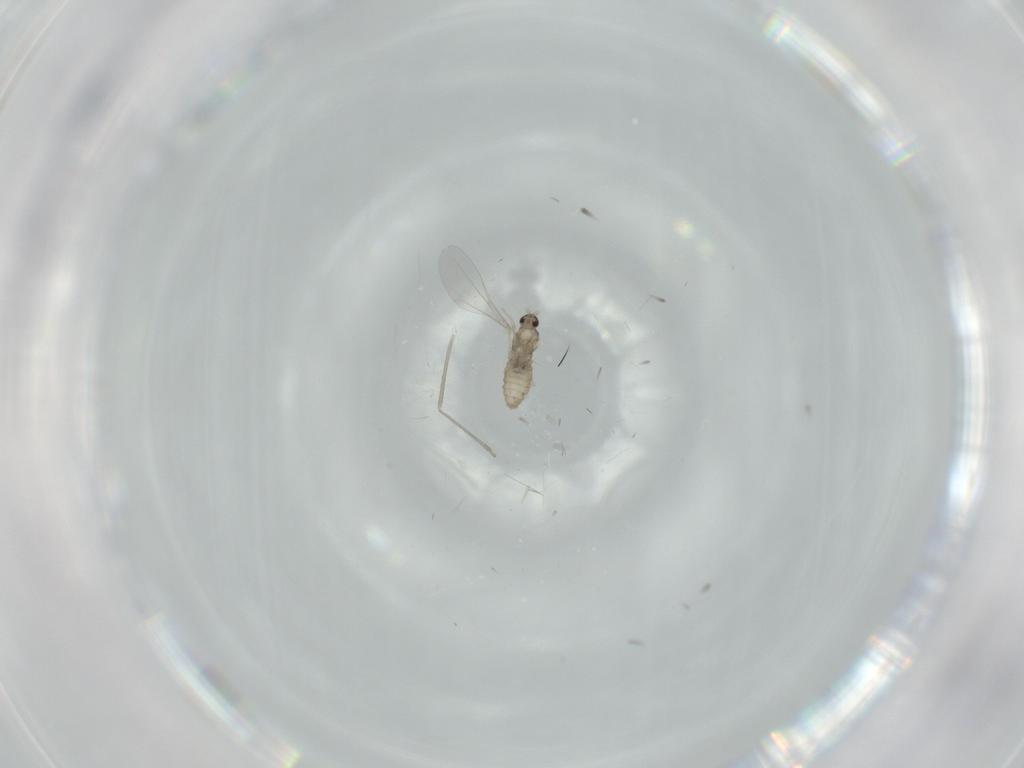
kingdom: Animalia
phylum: Arthropoda
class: Insecta
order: Diptera
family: Cecidomyiidae
